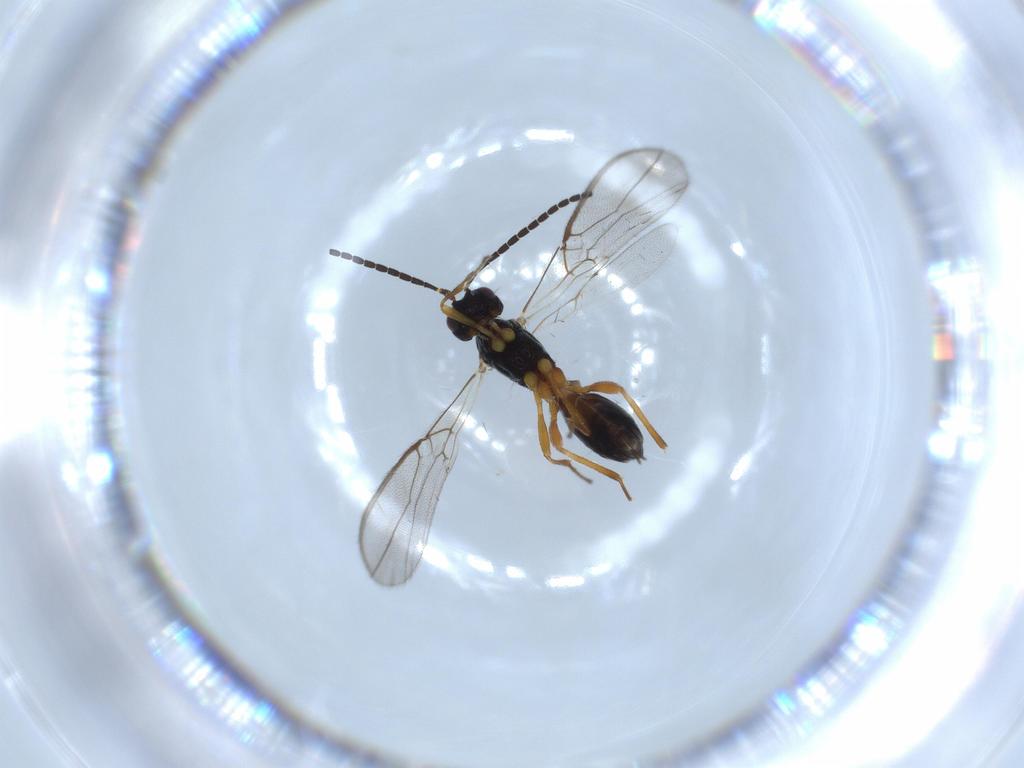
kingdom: Animalia
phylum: Arthropoda
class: Insecta
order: Hymenoptera
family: Braconidae
